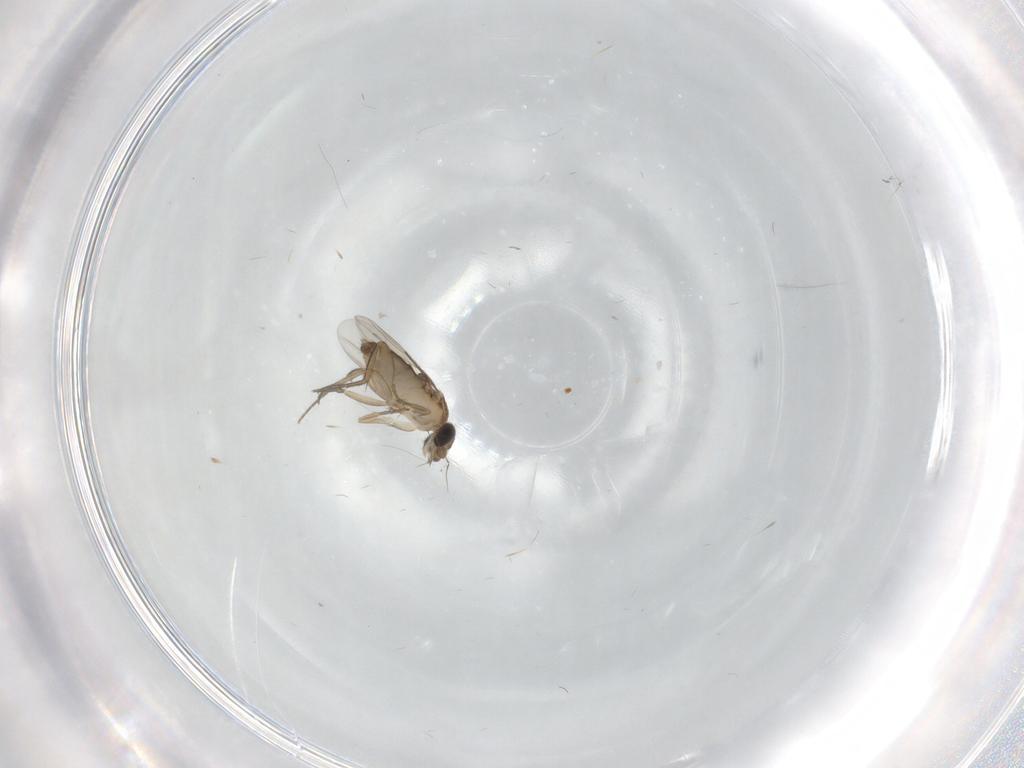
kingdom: Animalia
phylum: Arthropoda
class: Insecta
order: Diptera
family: Phoridae
